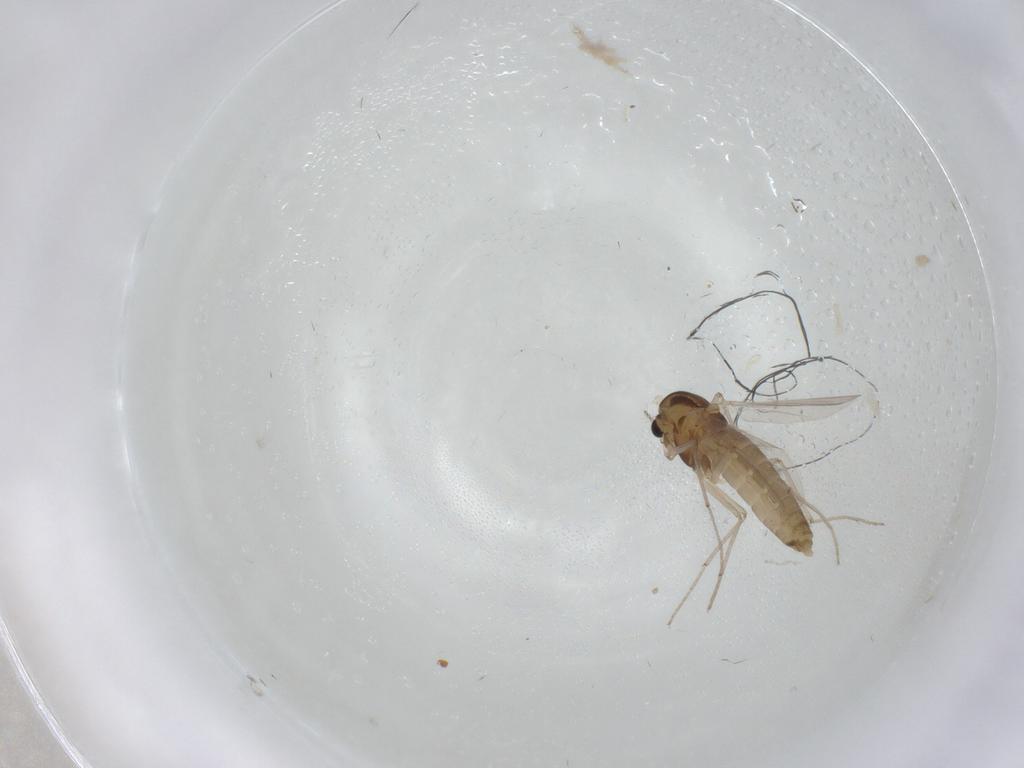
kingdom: Animalia
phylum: Arthropoda
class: Insecta
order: Diptera
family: Chironomidae
